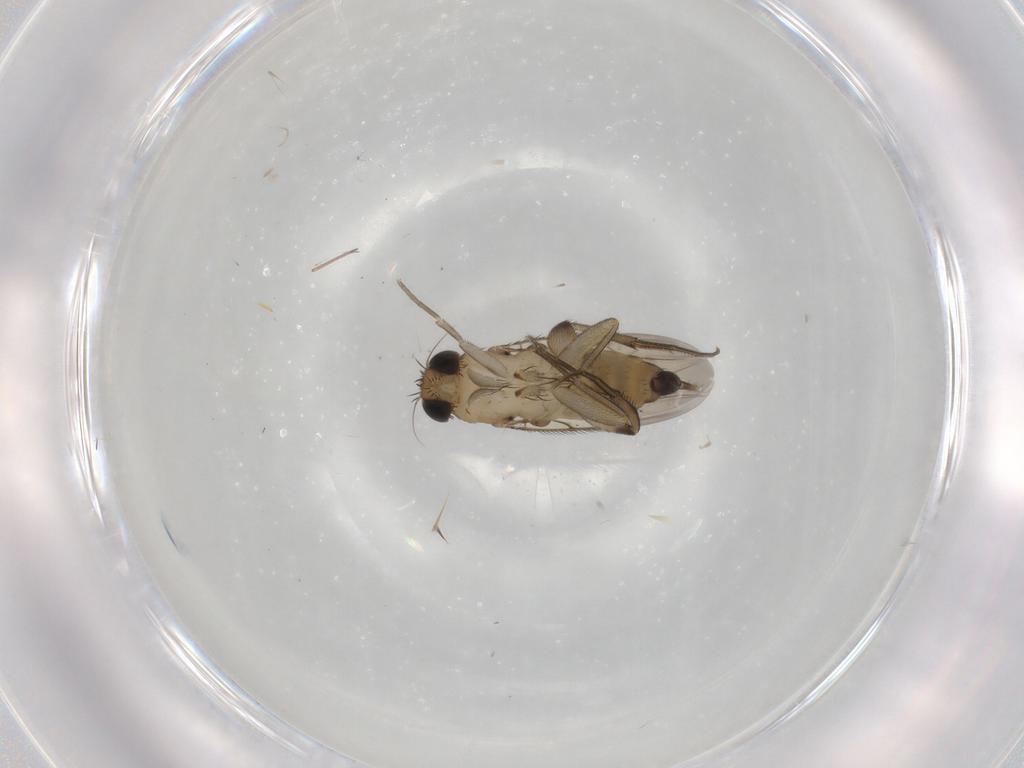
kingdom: Animalia
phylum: Arthropoda
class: Insecta
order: Diptera
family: Phoridae
